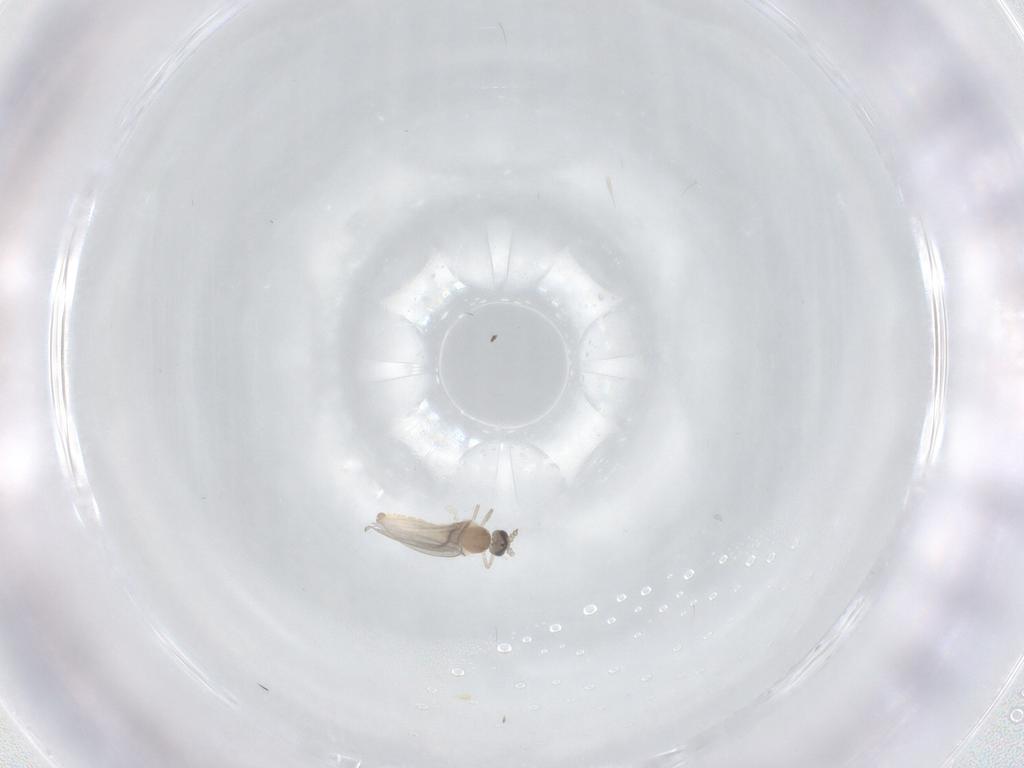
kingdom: Animalia
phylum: Arthropoda
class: Insecta
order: Diptera
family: Cecidomyiidae
